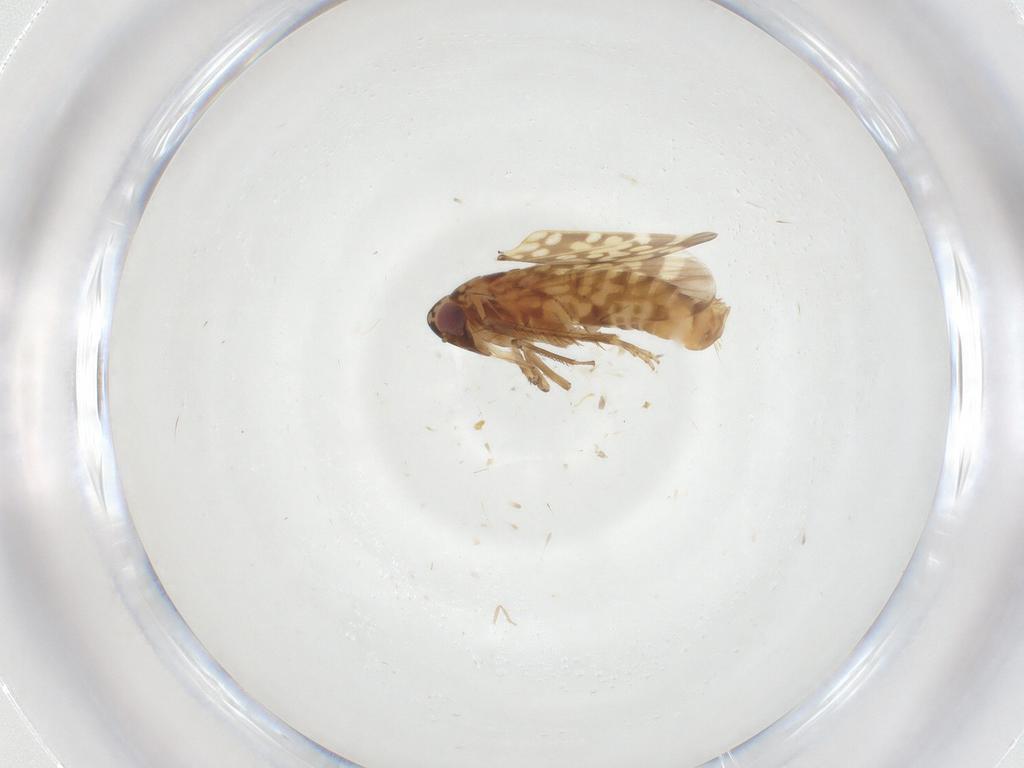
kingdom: Animalia
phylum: Arthropoda
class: Insecta
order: Hemiptera
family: Cicadellidae
